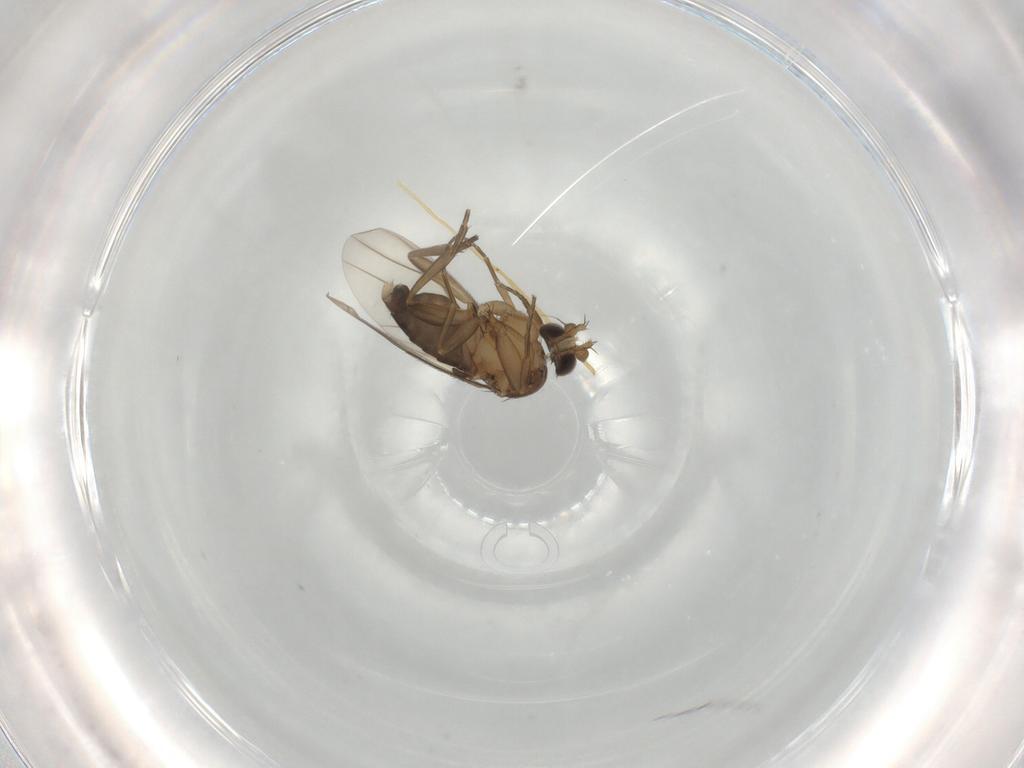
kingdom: Animalia
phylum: Arthropoda
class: Insecta
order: Diptera
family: Phoridae
